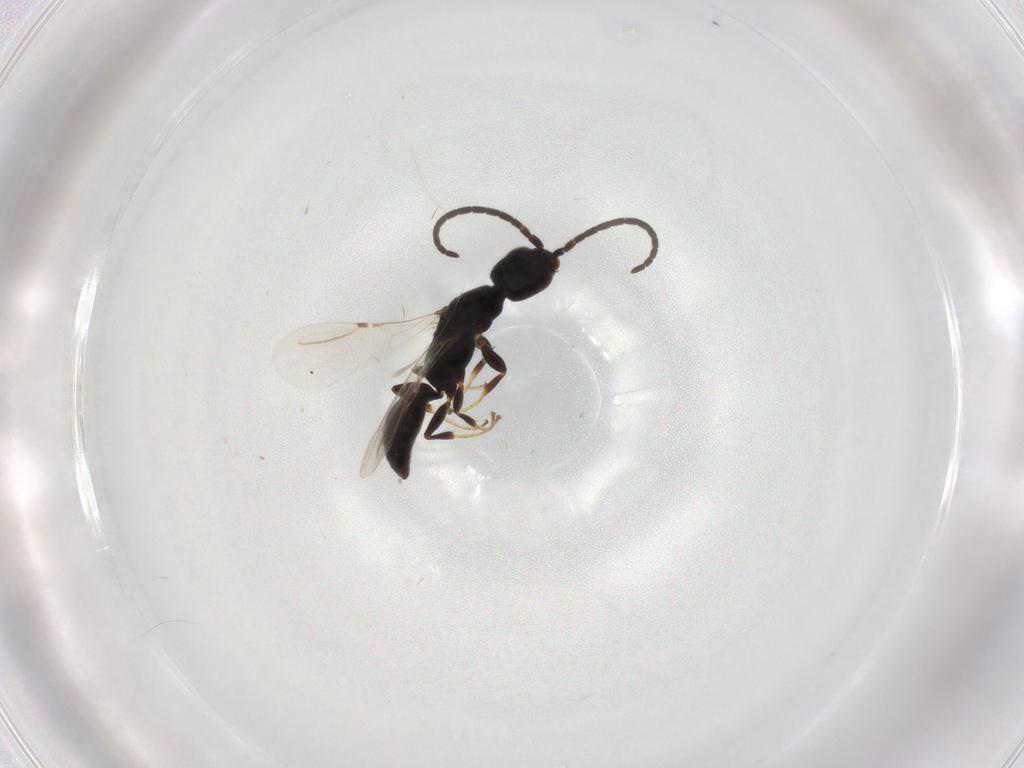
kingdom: Animalia
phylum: Arthropoda
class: Insecta
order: Hymenoptera
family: Bethylidae
